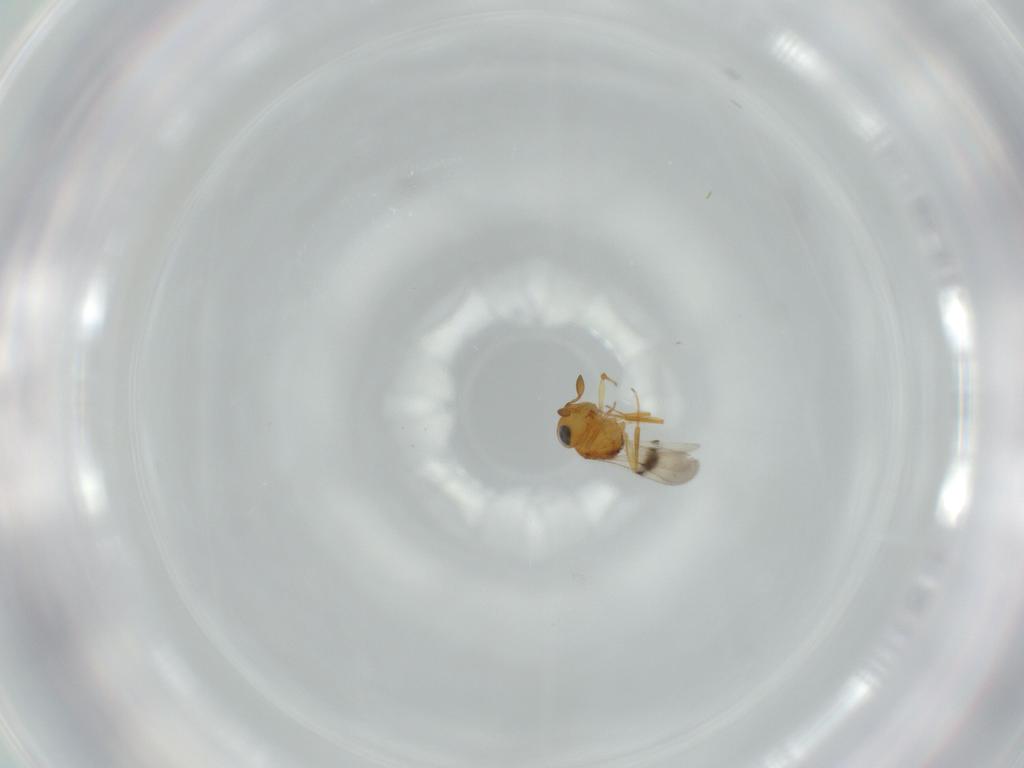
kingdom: Animalia
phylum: Arthropoda
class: Insecta
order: Hymenoptera
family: Scelionidae
